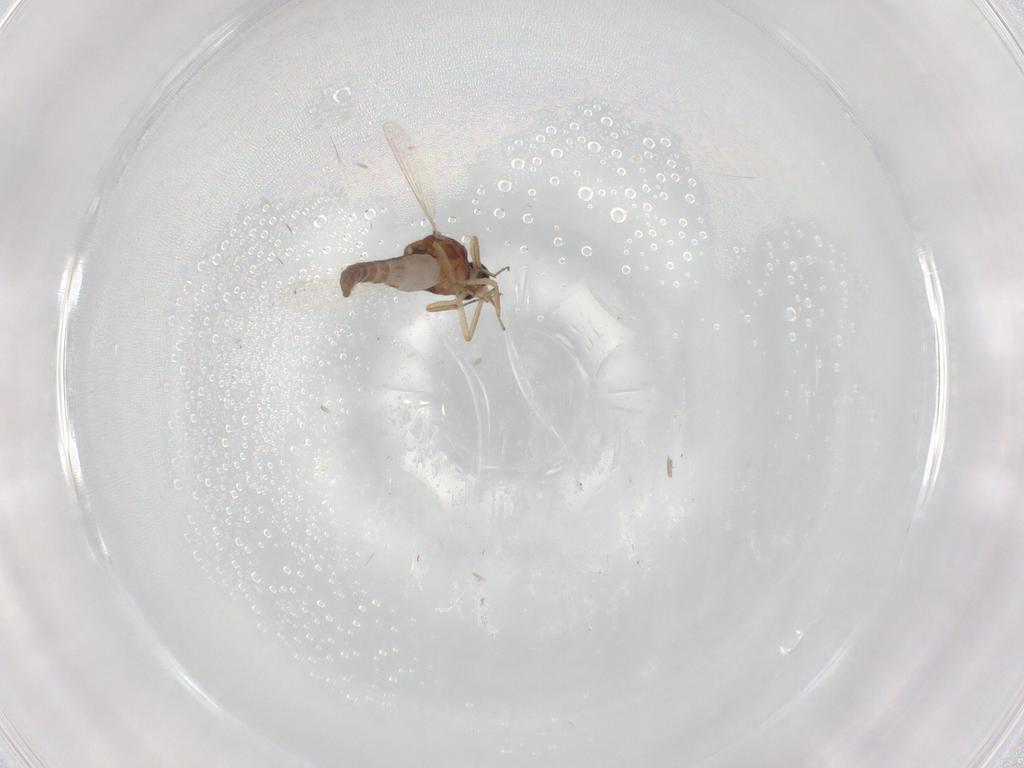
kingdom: Animalia
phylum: Arthropoda
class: Insecta
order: Diptera
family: Ceratopogonidae
